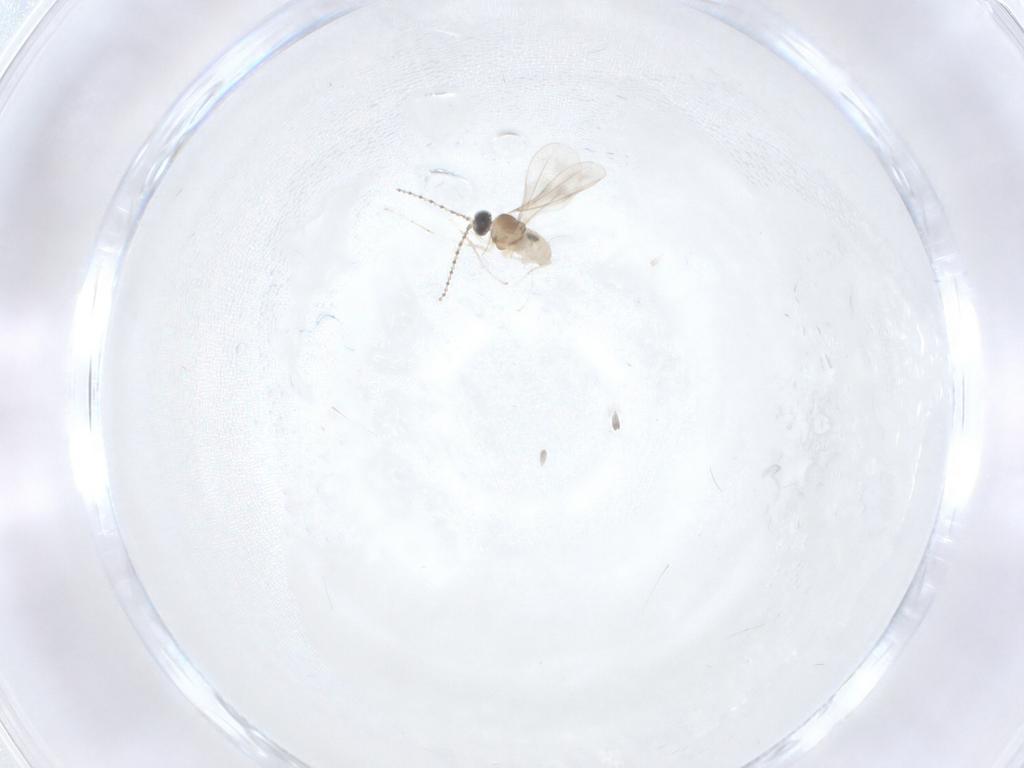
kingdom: Animalia
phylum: Arthropoda
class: Insecta
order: Diptera
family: Cecidomyiidae
